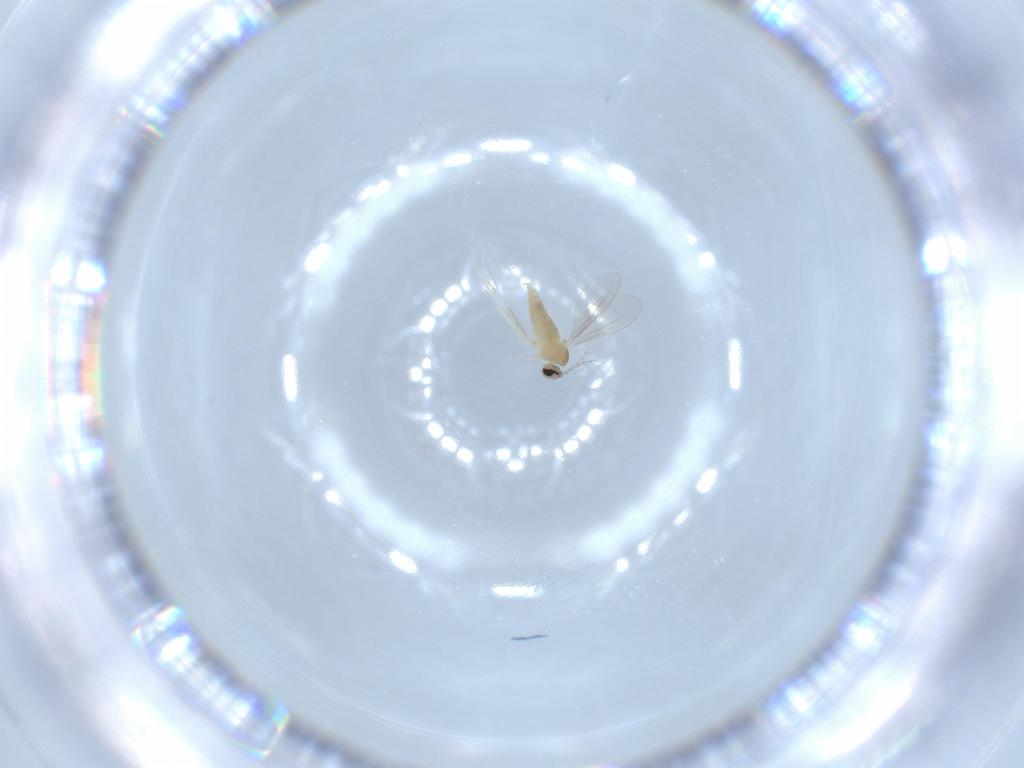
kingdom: Animalia
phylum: Arthropoda
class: Insecta
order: Diptera
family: Cecidomyiidae
